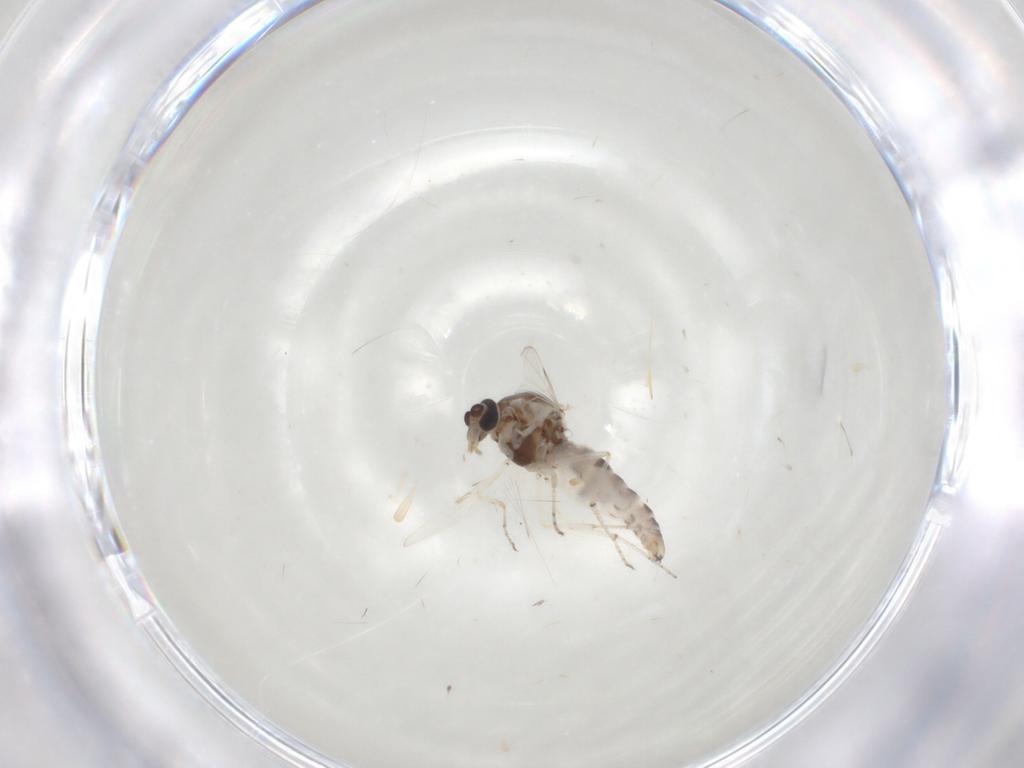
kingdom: Animalia
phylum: Arthropoda
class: Insecta
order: Diptera
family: Ceratopogonidae
